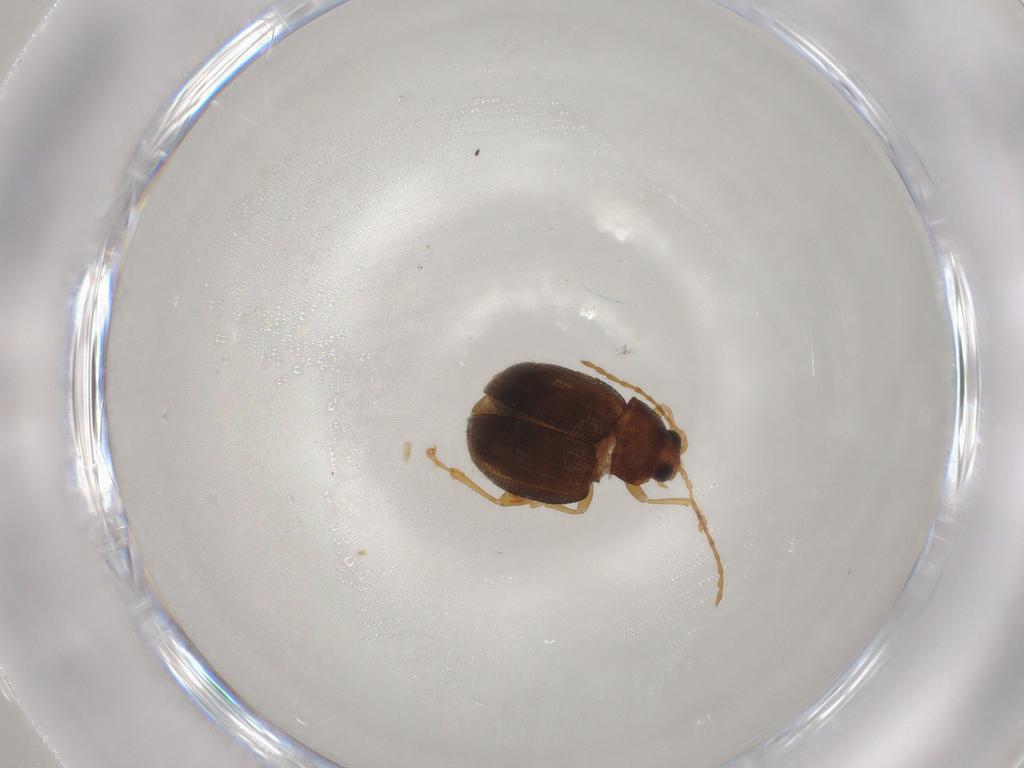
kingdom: Animalia
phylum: Arthropoda
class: Insecta
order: Coleoptera
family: Chrysomelidae
